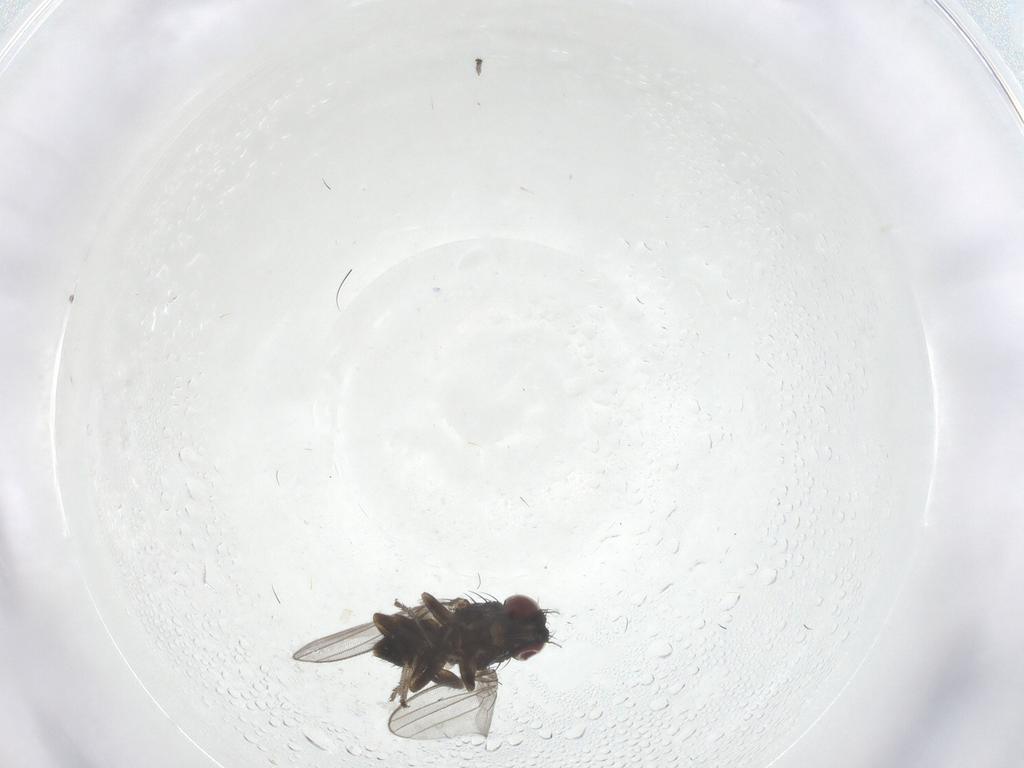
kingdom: Animalia
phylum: Arthropoda
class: Insecta
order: Diptera
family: Milichiidae
